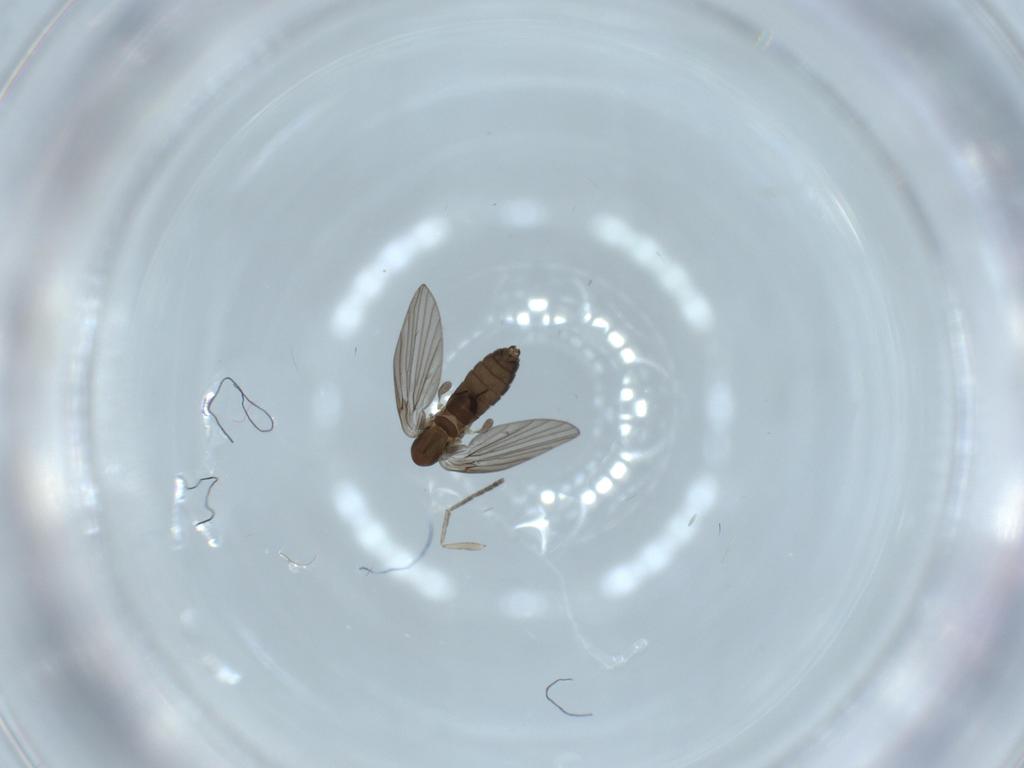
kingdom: Animalia
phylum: Arthropoda
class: Insecta
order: Diptera
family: Psychodidae
